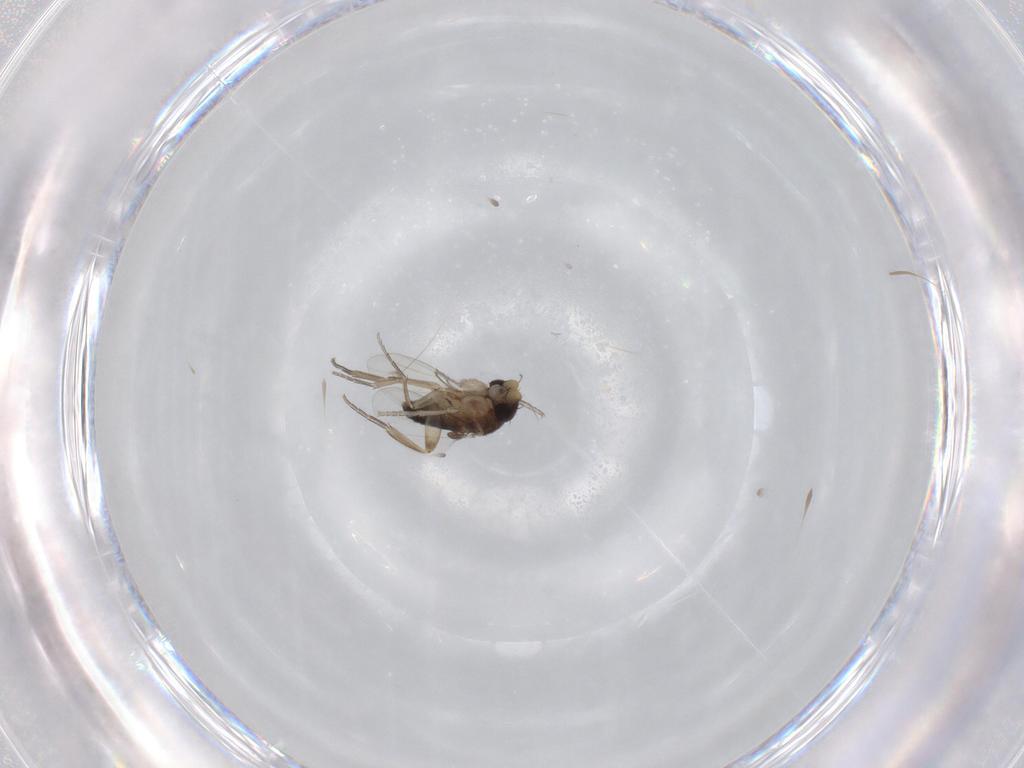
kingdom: Animalia
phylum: Arthropoda
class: Insecta
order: Diptera
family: Phoridae
